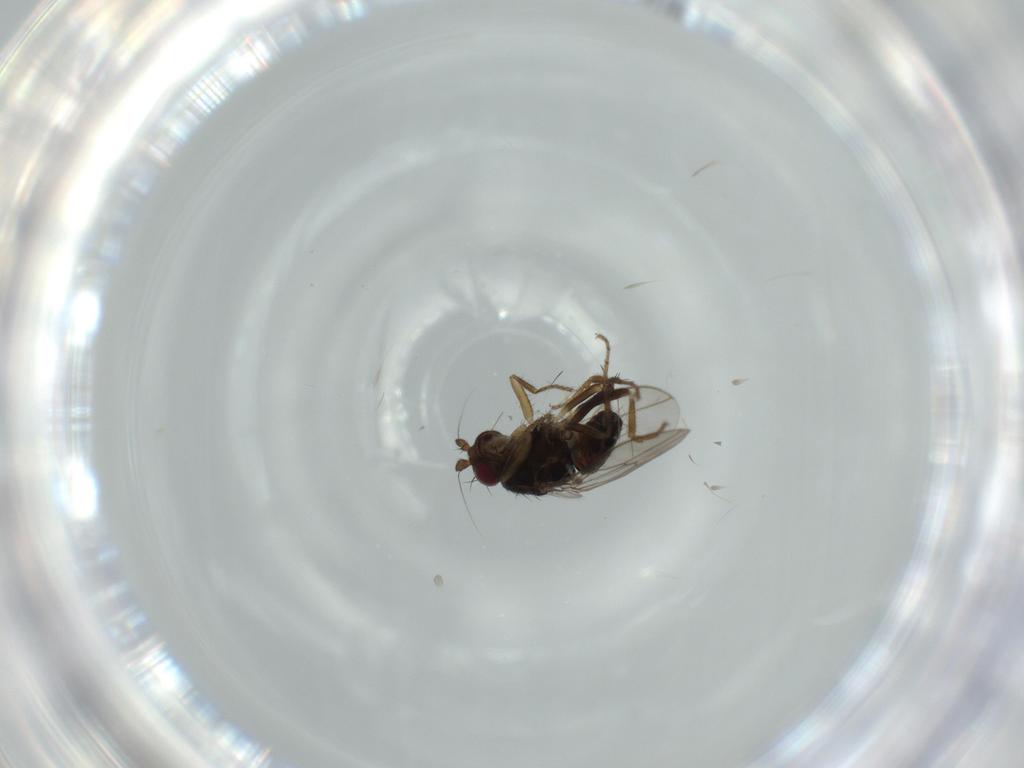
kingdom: Animalia
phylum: Arthropoda
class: Insecta
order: Diptera
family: Sphaeroceridae
